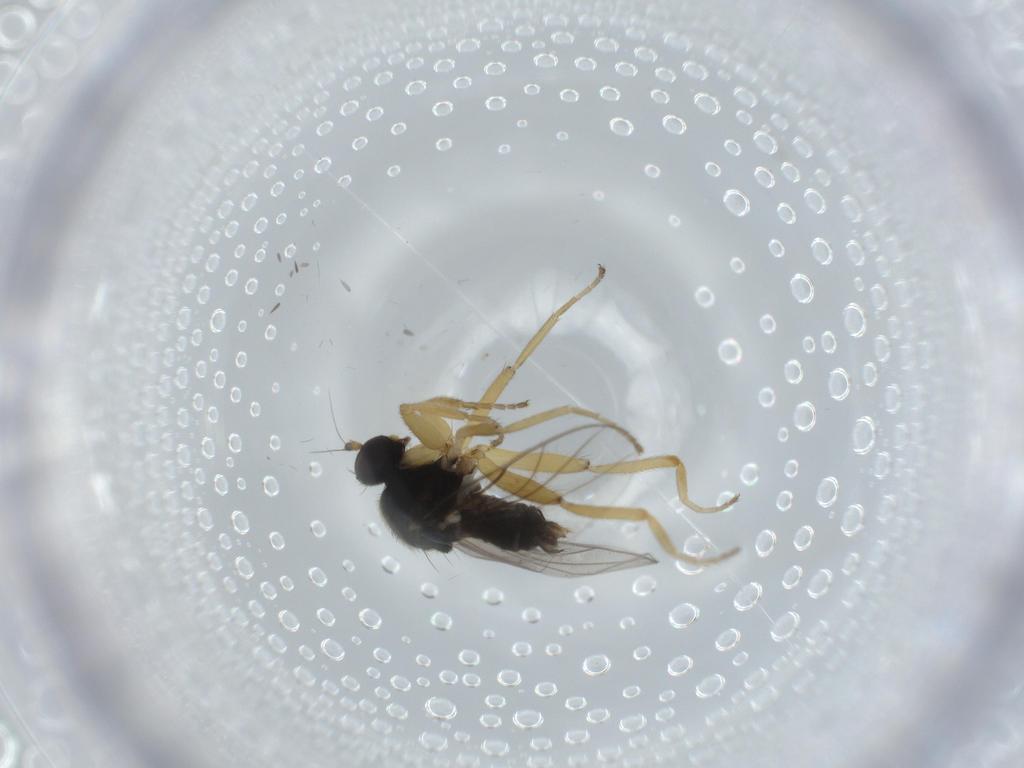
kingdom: Animalia
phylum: Arthropoda
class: Insecta
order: Diptera
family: Hybotidae
